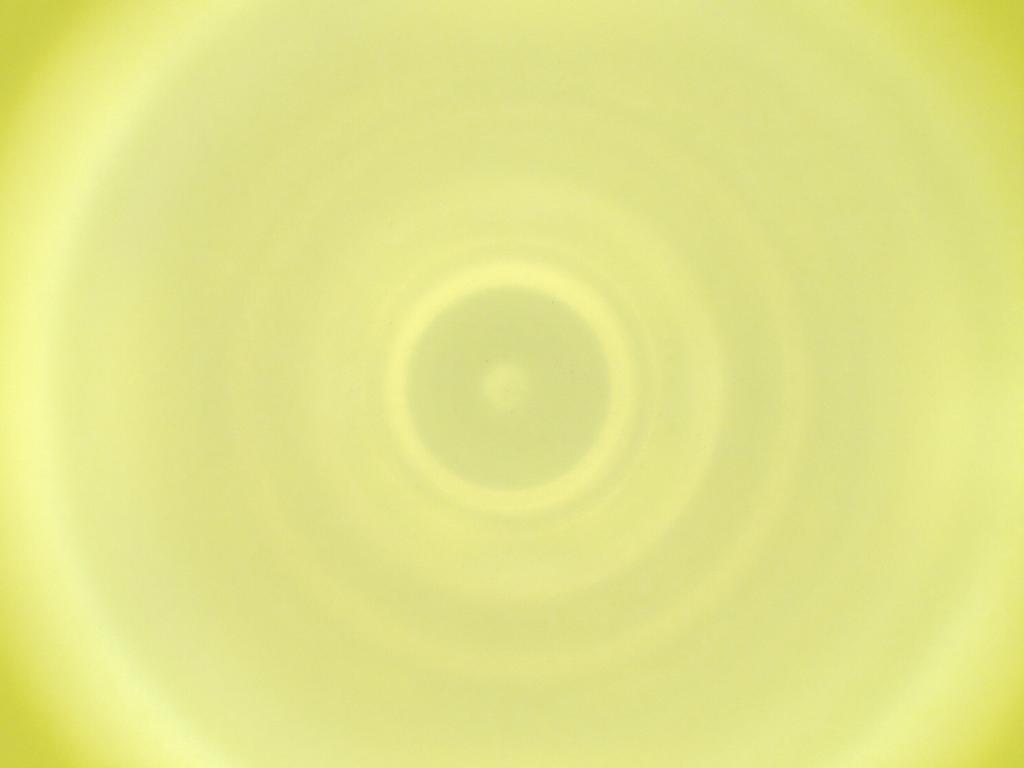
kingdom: Animalia
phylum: Arthropoda
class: Insecta
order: Diptera
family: Cecidomyiidae
